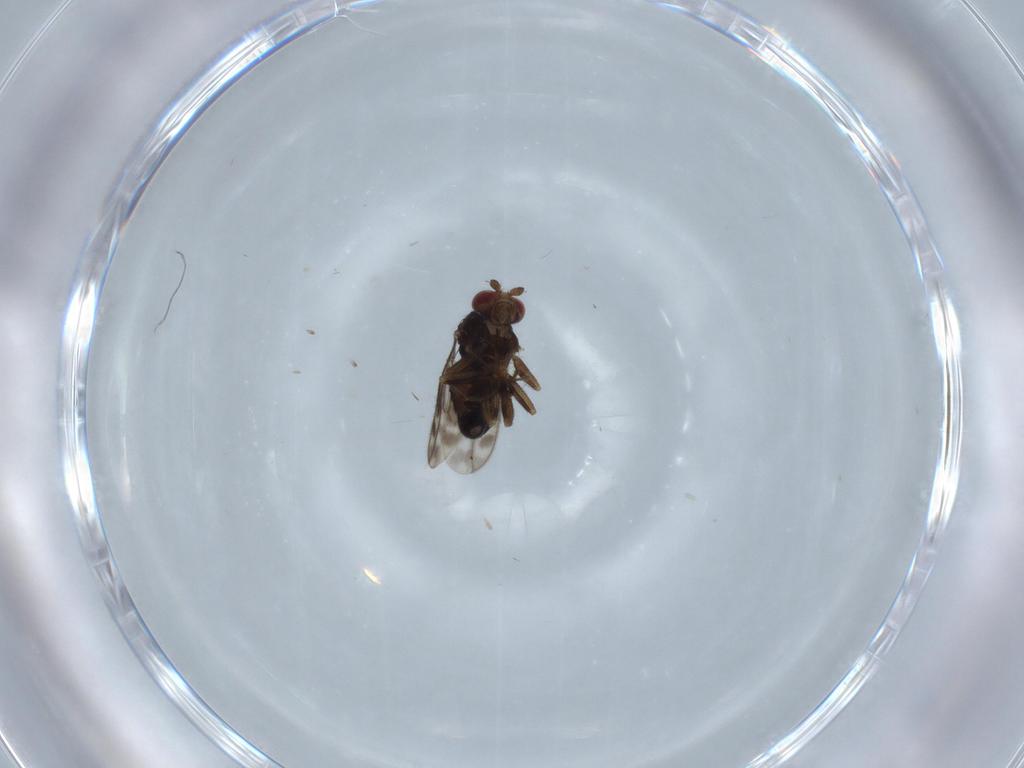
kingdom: Animalia
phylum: Arthropoda
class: Insecta
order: Diptera
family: Sphaeroceridae
